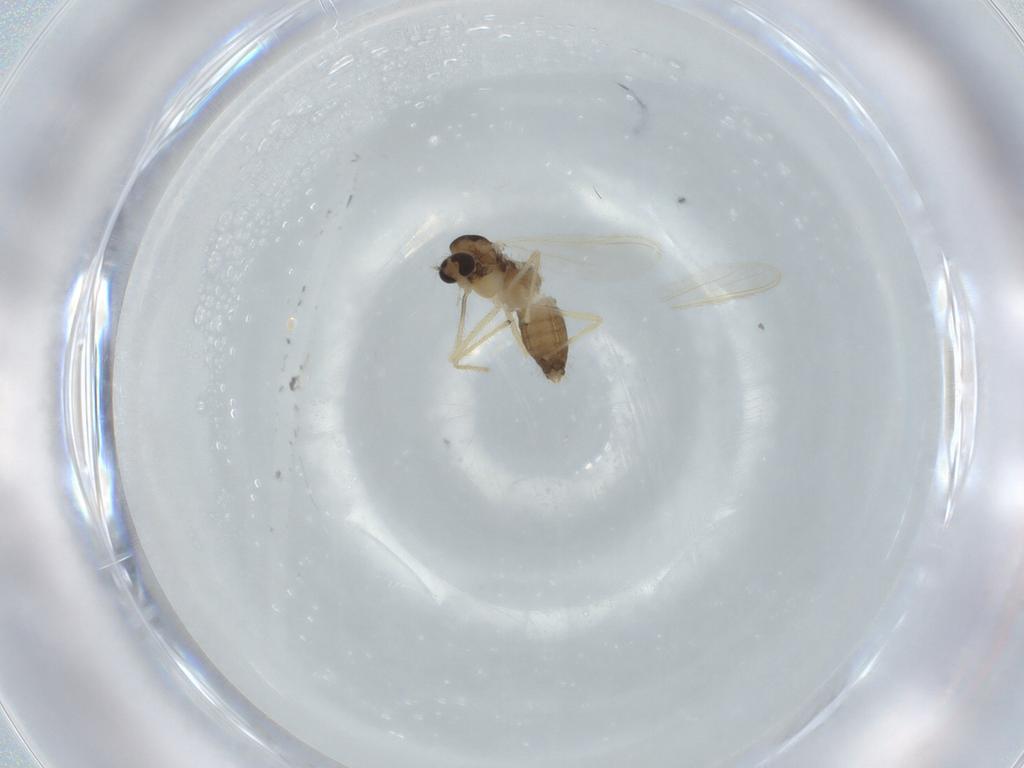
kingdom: Animalia
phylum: Arthropoda
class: Insecta
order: Diptera
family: Chironomidae
